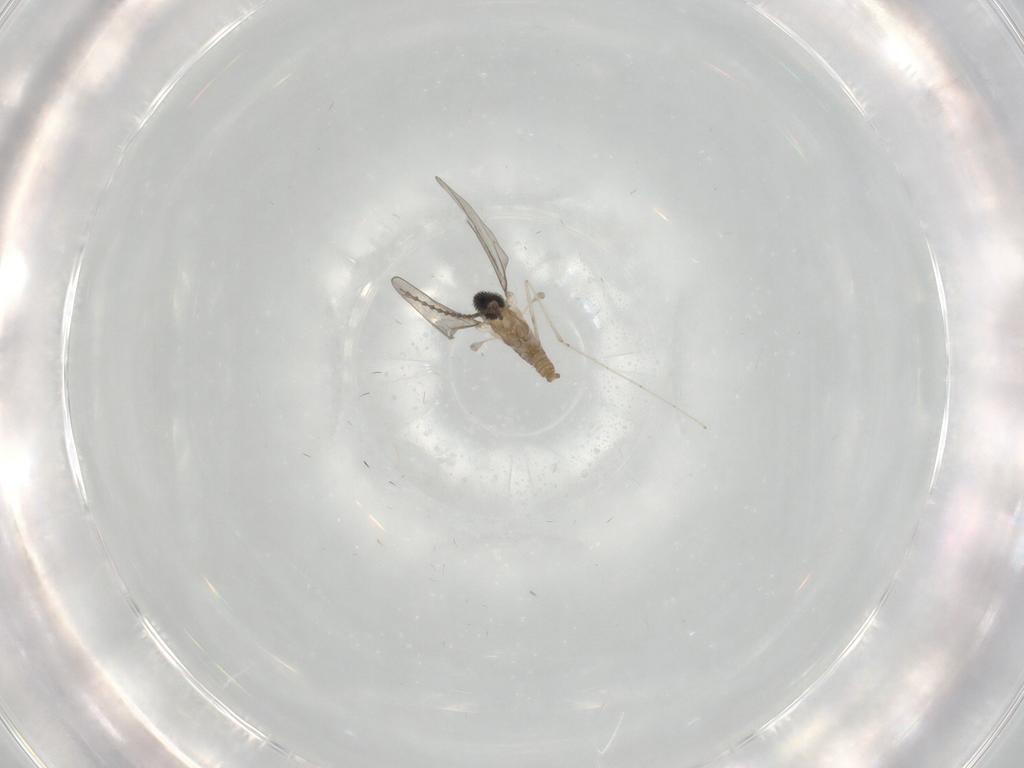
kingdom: Animalia
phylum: Arthropoda
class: Insecta
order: Diptera
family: Cecidomyiidae
